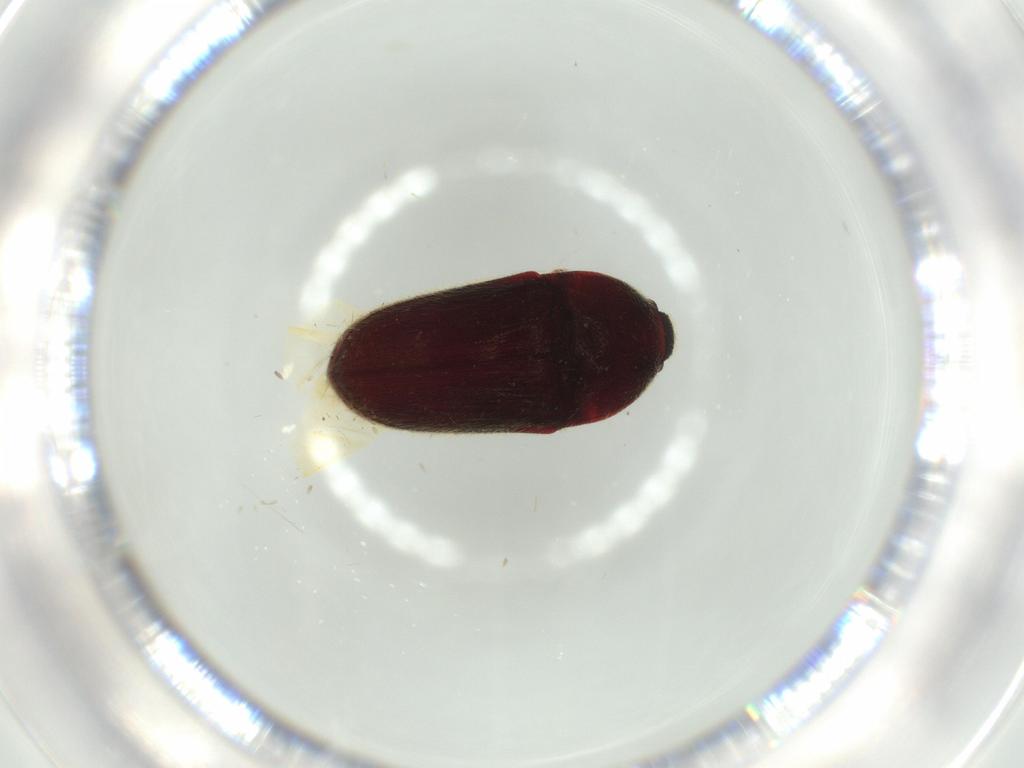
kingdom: Animalia
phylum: Arthropoda
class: Insecta
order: Coleoptera
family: Throscidae
